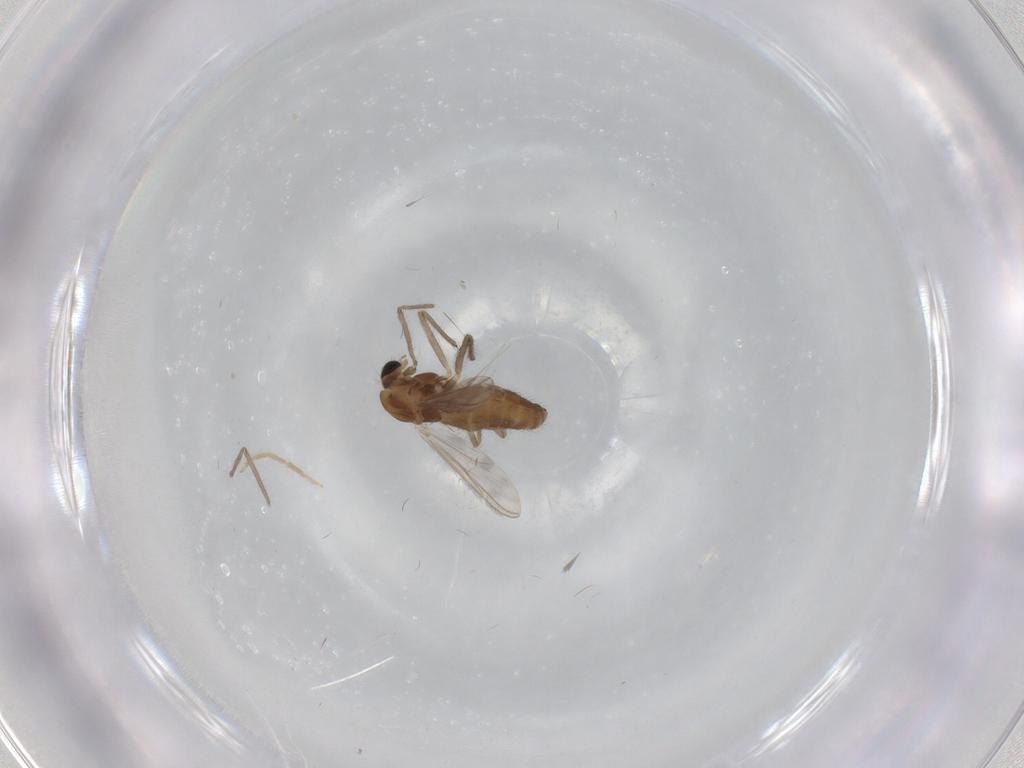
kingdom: Animalia
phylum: Arthropoda
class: Insecta
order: Diptera
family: Chironomidae
